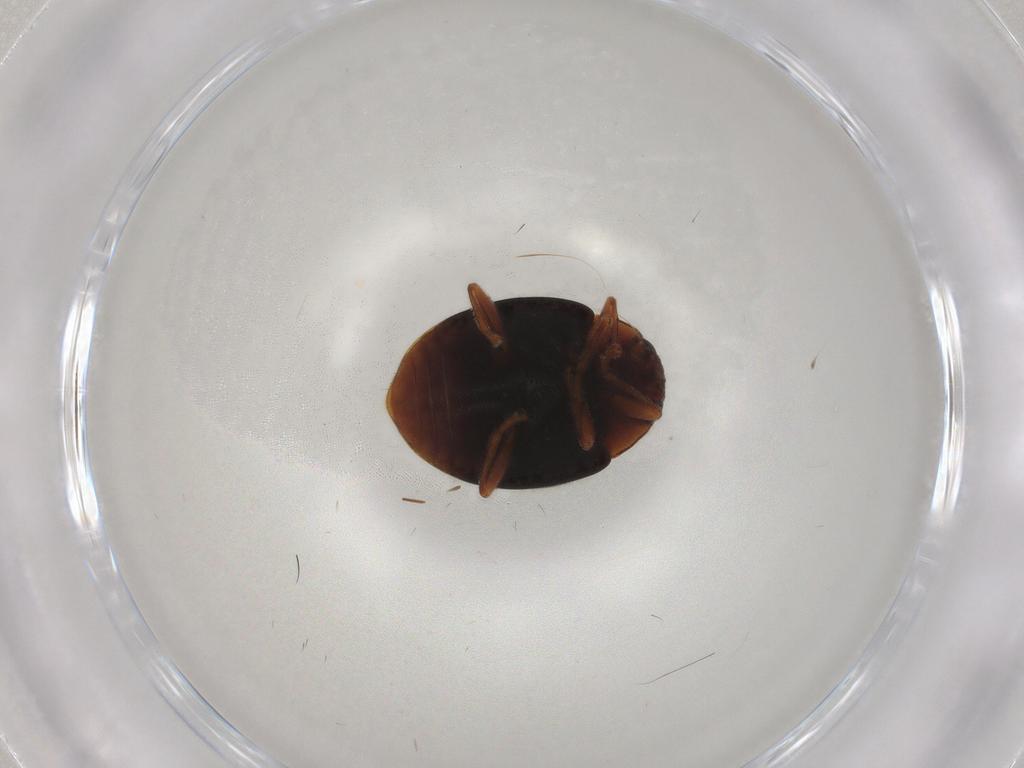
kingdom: Animalia
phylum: Arthropoda
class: Insecta
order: Coleoptera
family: Coccinellidae
